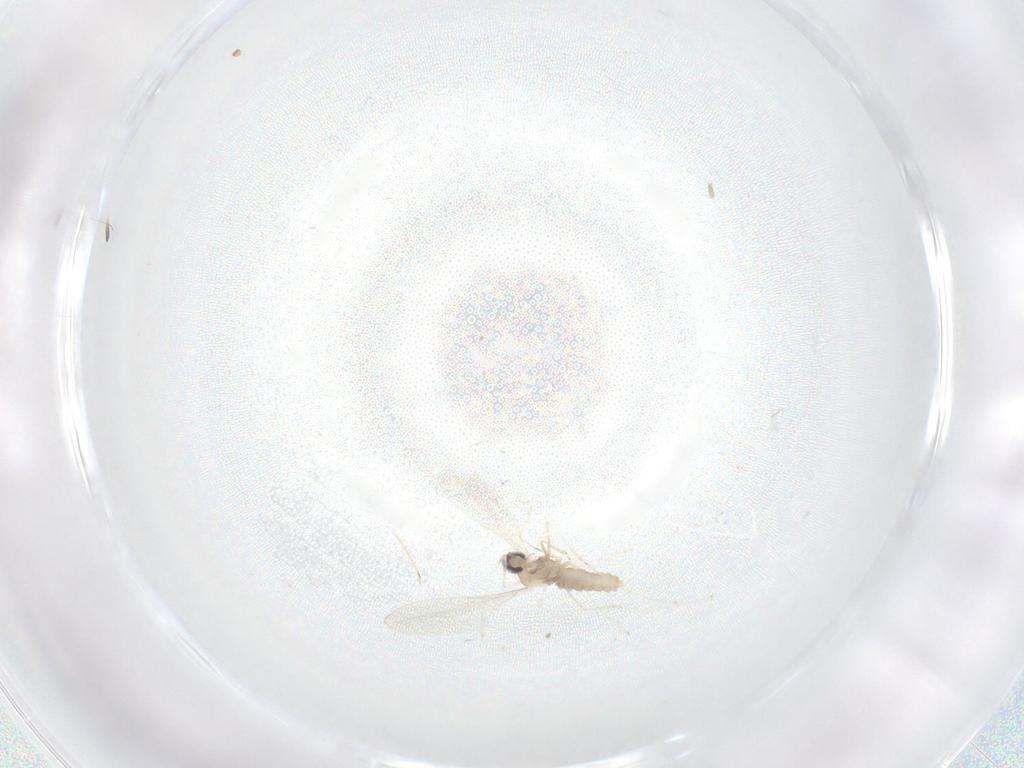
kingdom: Animalia
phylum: Arthropoda
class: Insecta
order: Diptera
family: Cecidomyiidae
